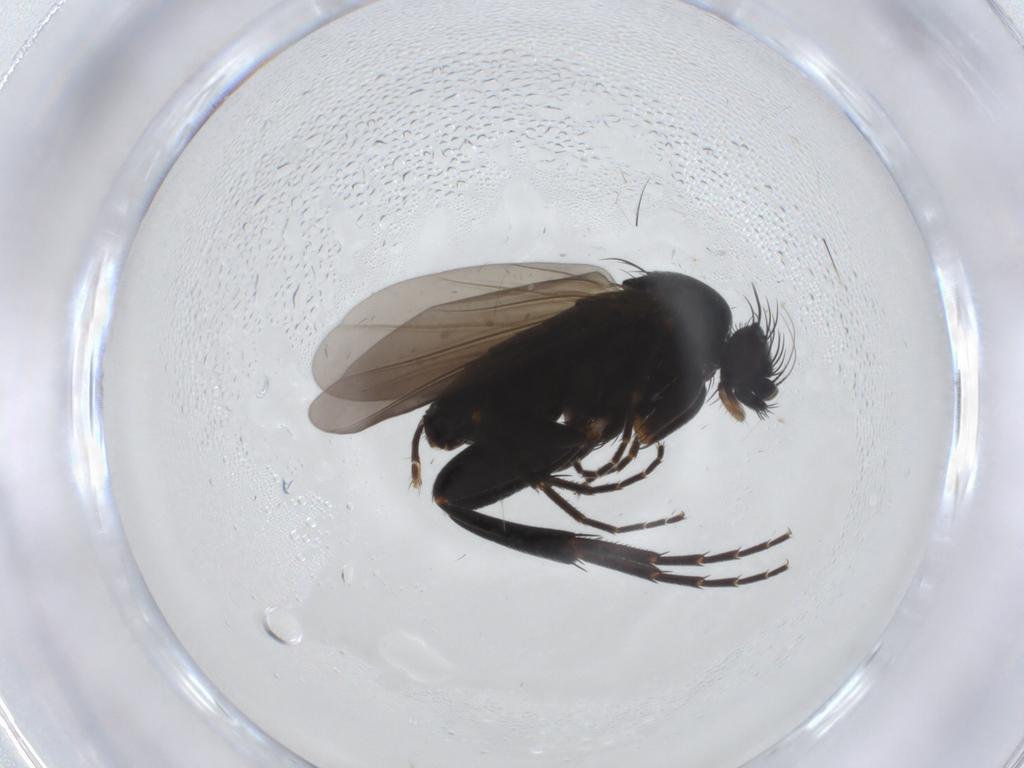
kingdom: Animalia
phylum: Arthropoda
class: Insecta
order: Diptera
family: Phoridae
